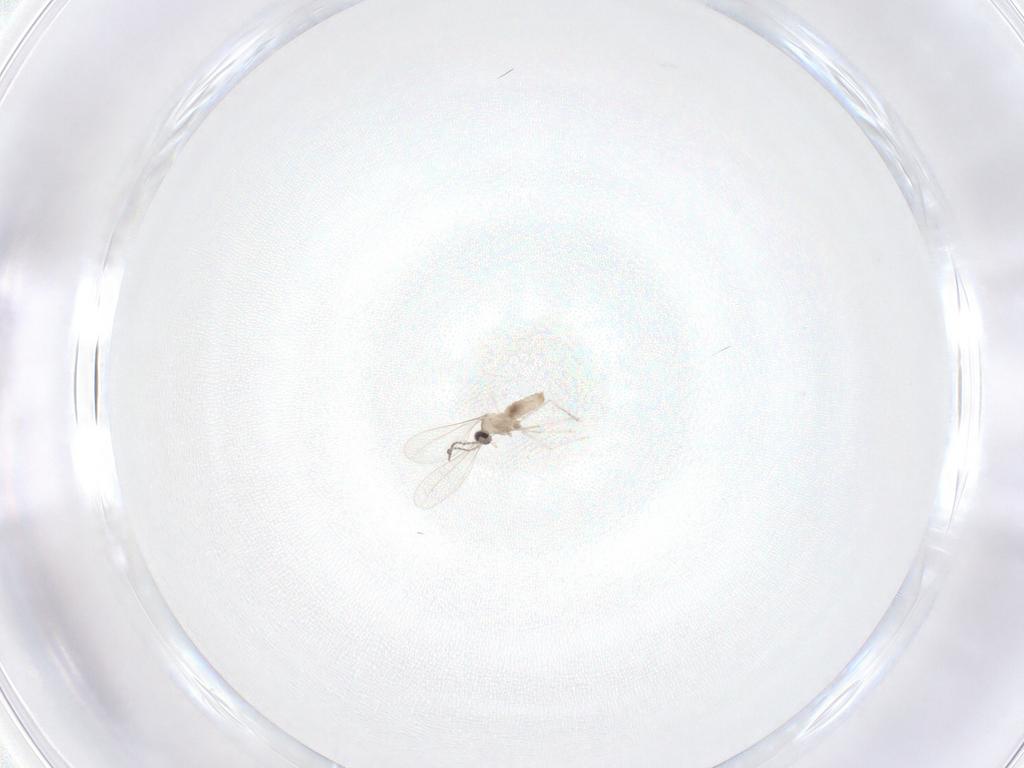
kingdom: Animalia
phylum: Arthropoda
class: Insecta
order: Diptera
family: Cecidomyiidae
